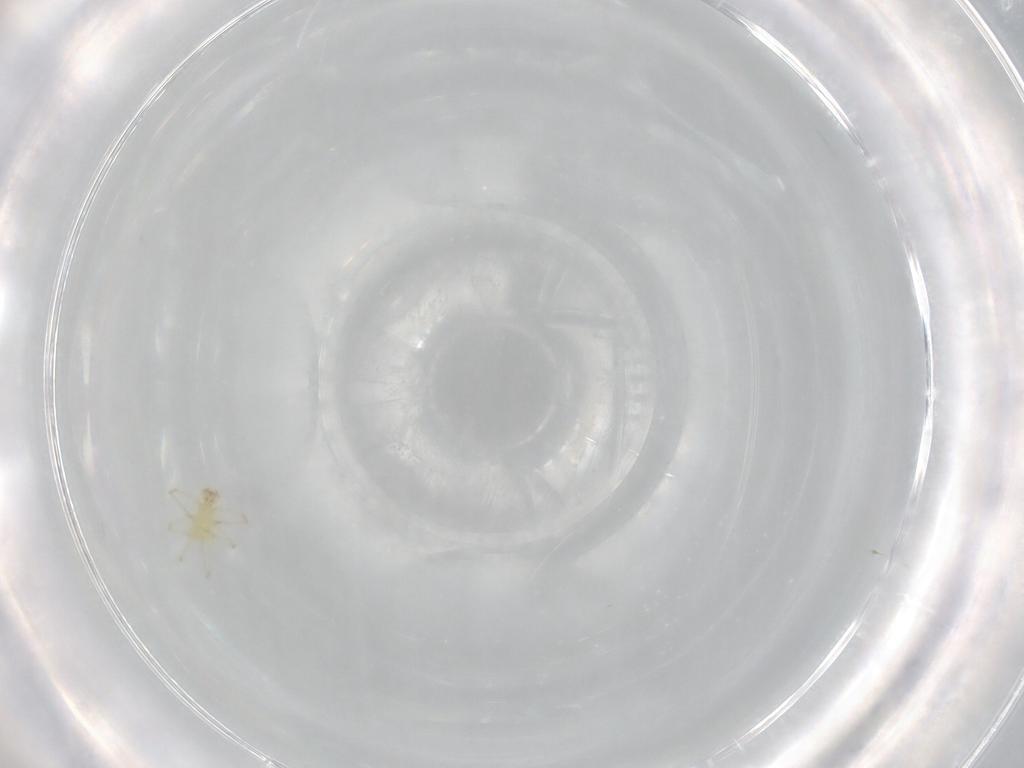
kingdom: Animalia
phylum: Arthropoda
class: Arachnida
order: Trombidiformes
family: Erythraeidae
